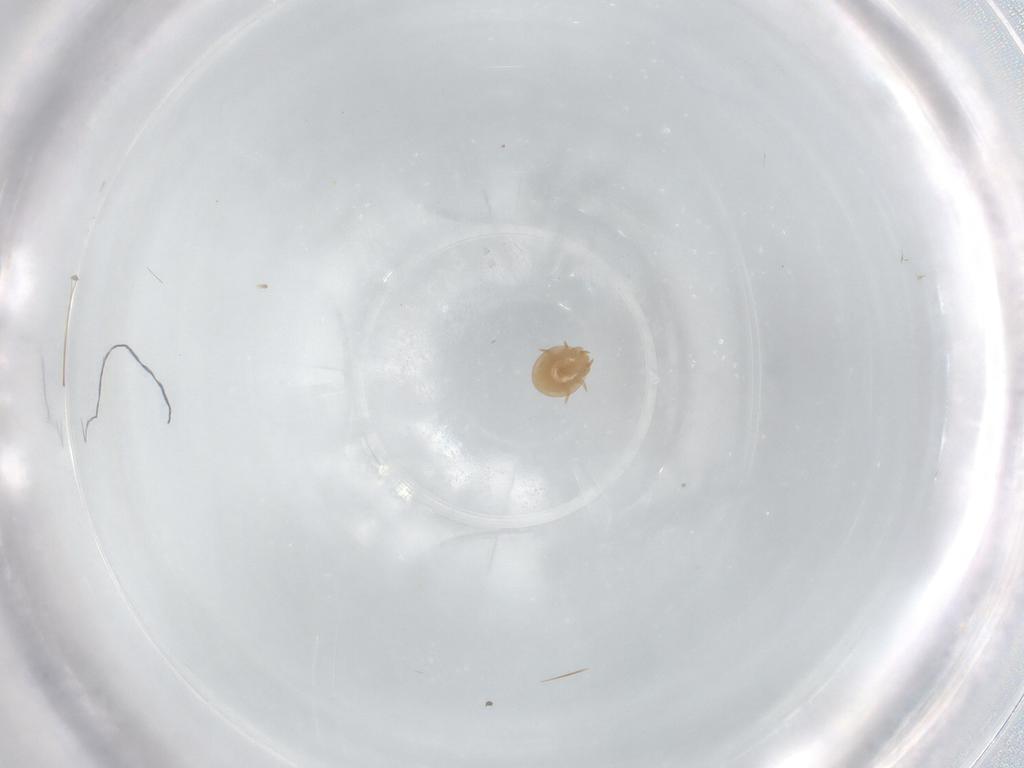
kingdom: Animalia
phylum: Arthropoda
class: Arachnida
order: Mesostigmata
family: Trematuridae
